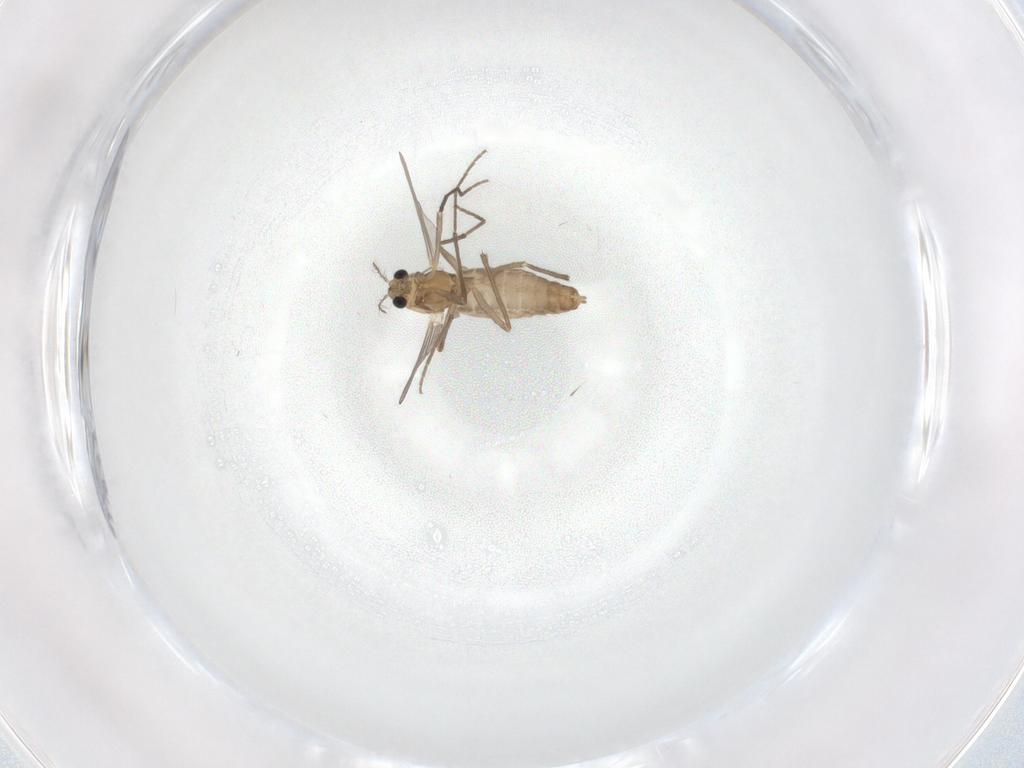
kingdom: Animalia
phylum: Arthropoda
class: Insecta
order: Diptera
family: Chironomidae
